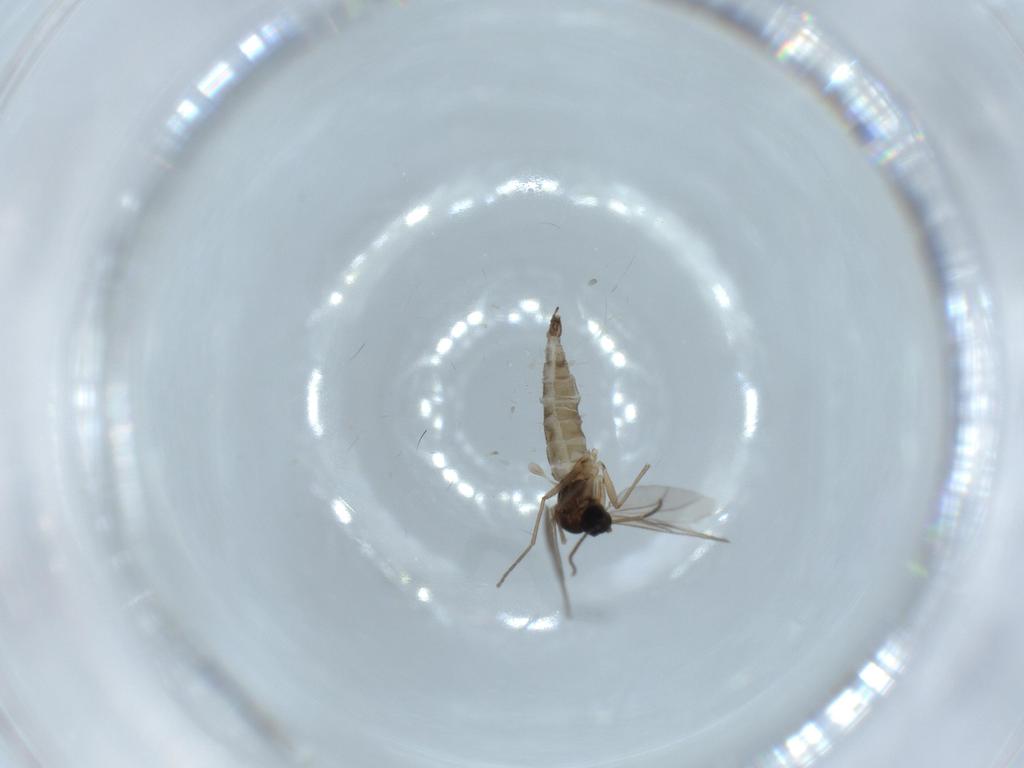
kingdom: Animalia
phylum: Arthropoda
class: Insecta
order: Diptera
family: Sciaridae
